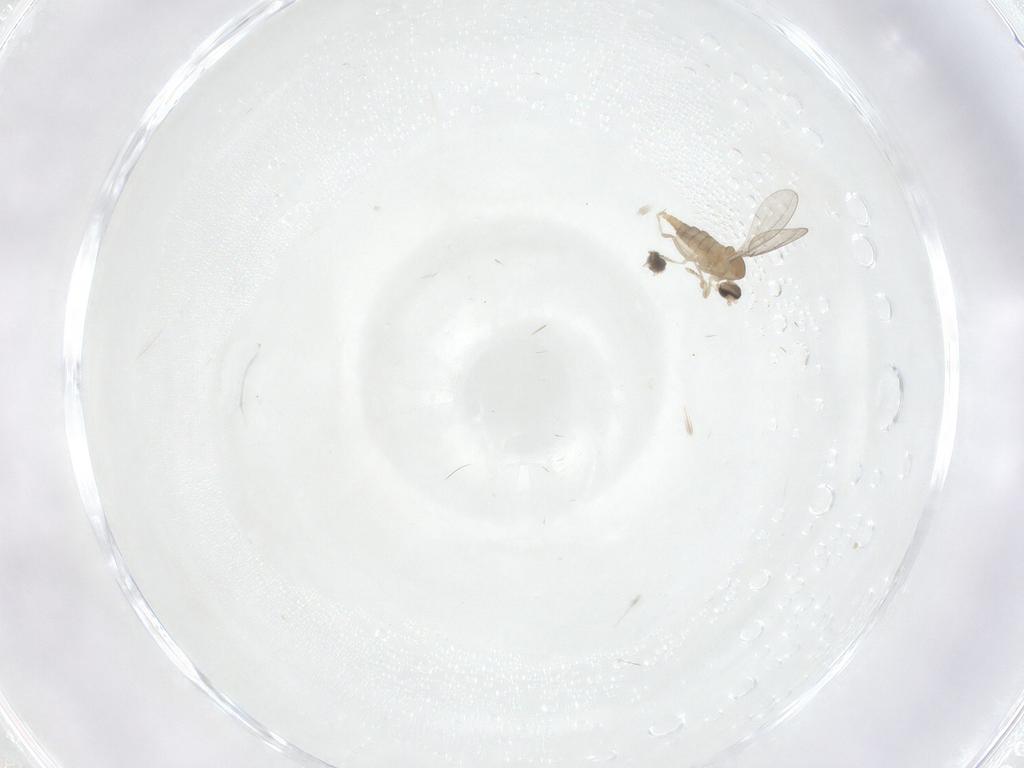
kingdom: Animalia
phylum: Arthropoda
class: Insecta
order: Diptera
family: Cecidomyiidae
